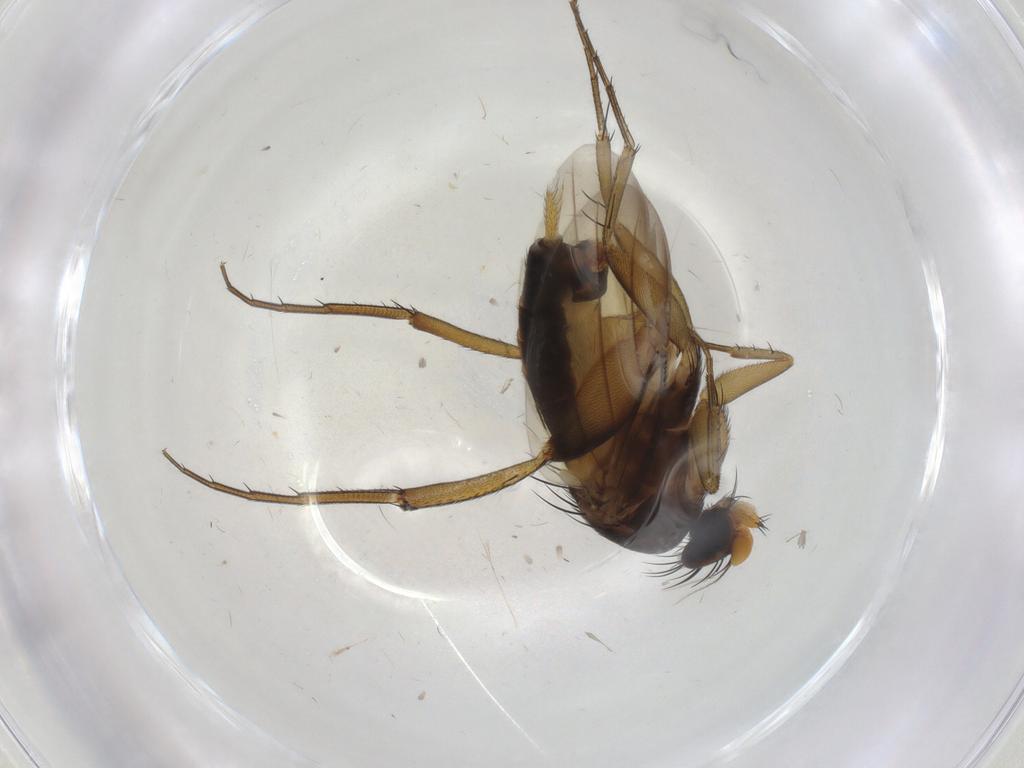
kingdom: Animalia
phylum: Arthropoda
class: Insecta
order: Diptera
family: Phoridae
